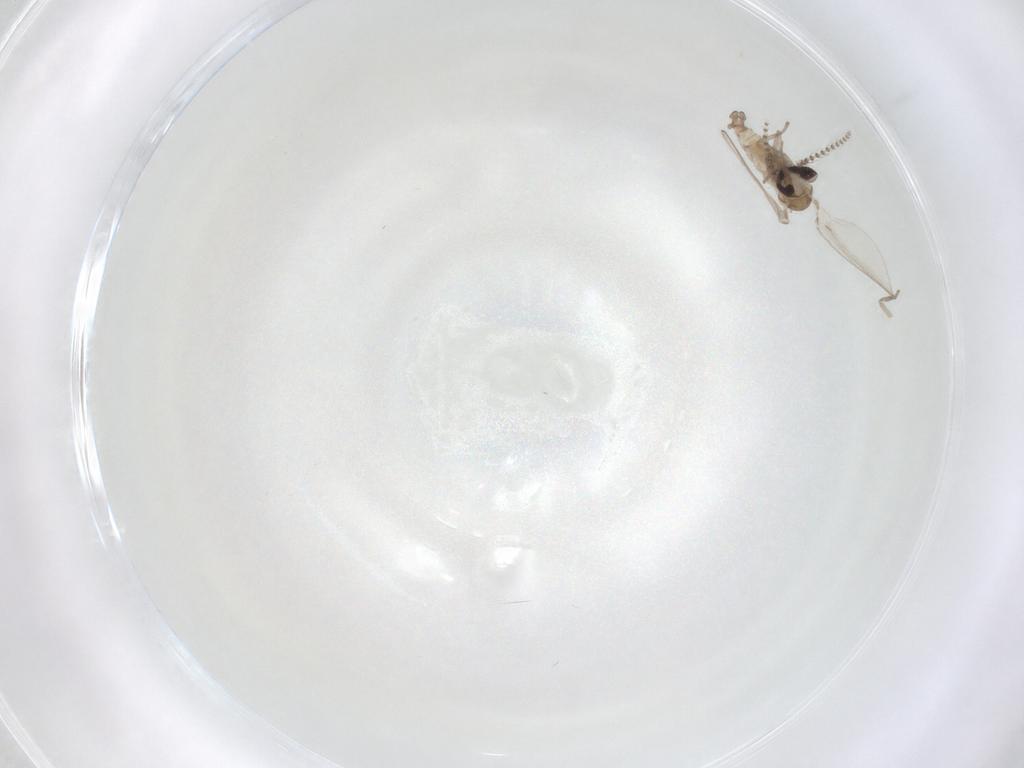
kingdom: Animalia
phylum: Arthropoda
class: Insecta
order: Diptera
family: Psychodidae
